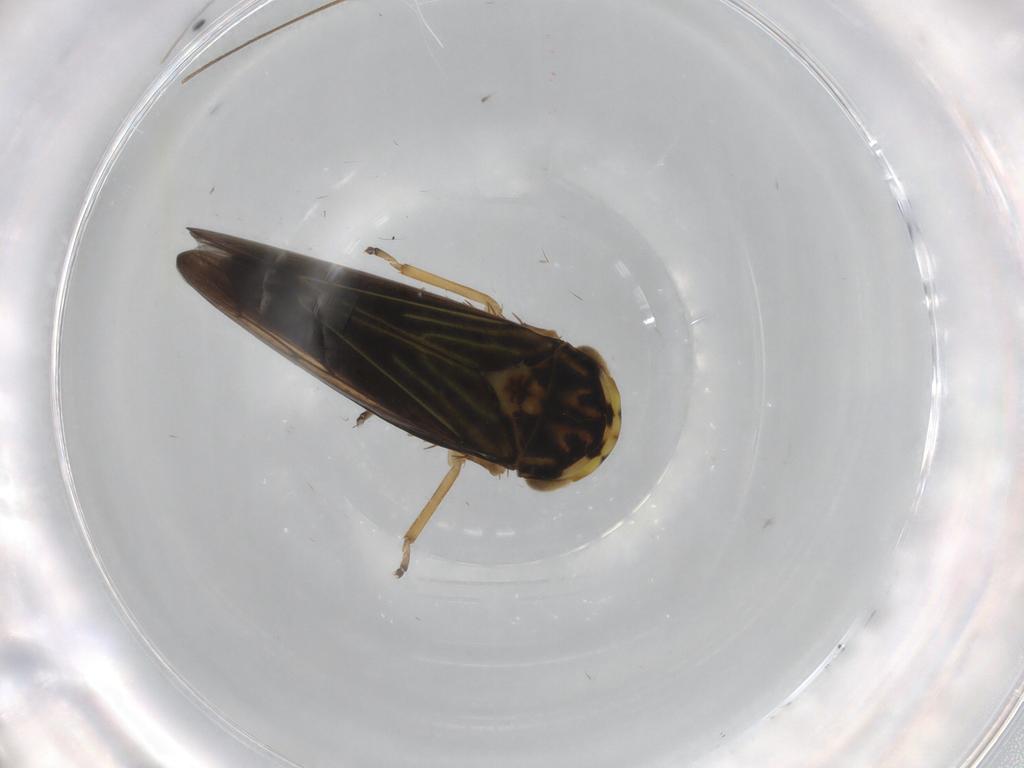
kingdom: Animalia
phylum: Arthropoda
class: Insecta
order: Hemiptera
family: Cicadellidae
